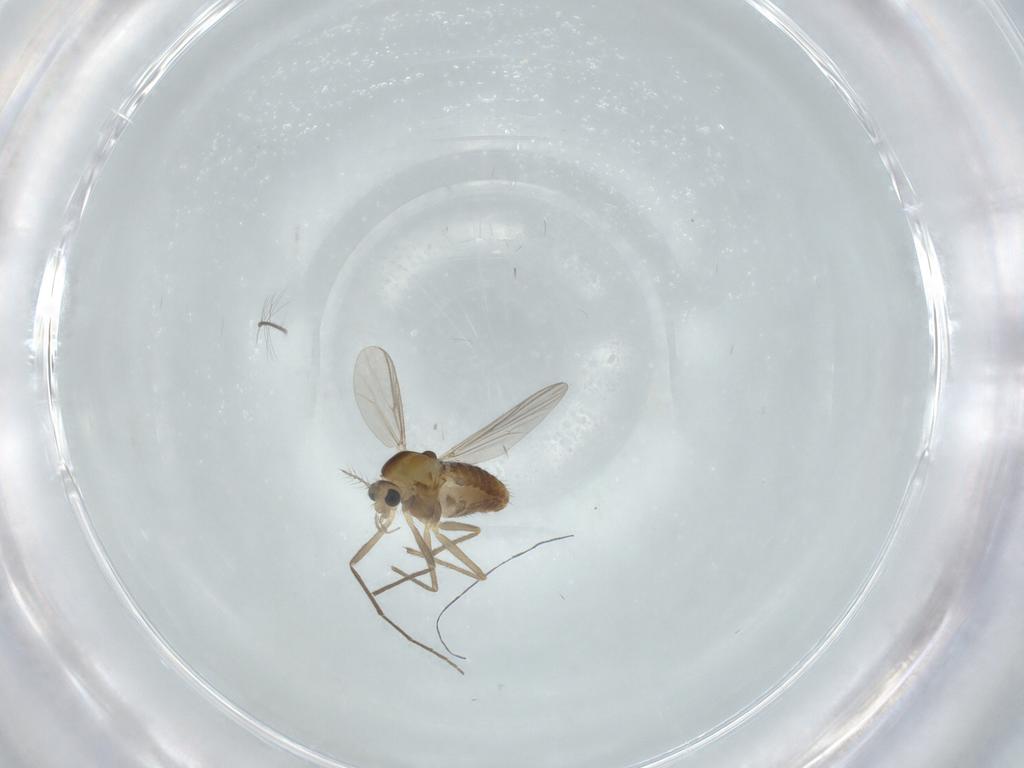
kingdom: Animalia
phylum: Arthropoda
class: Insecta
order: Diptera
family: Chironomidae
